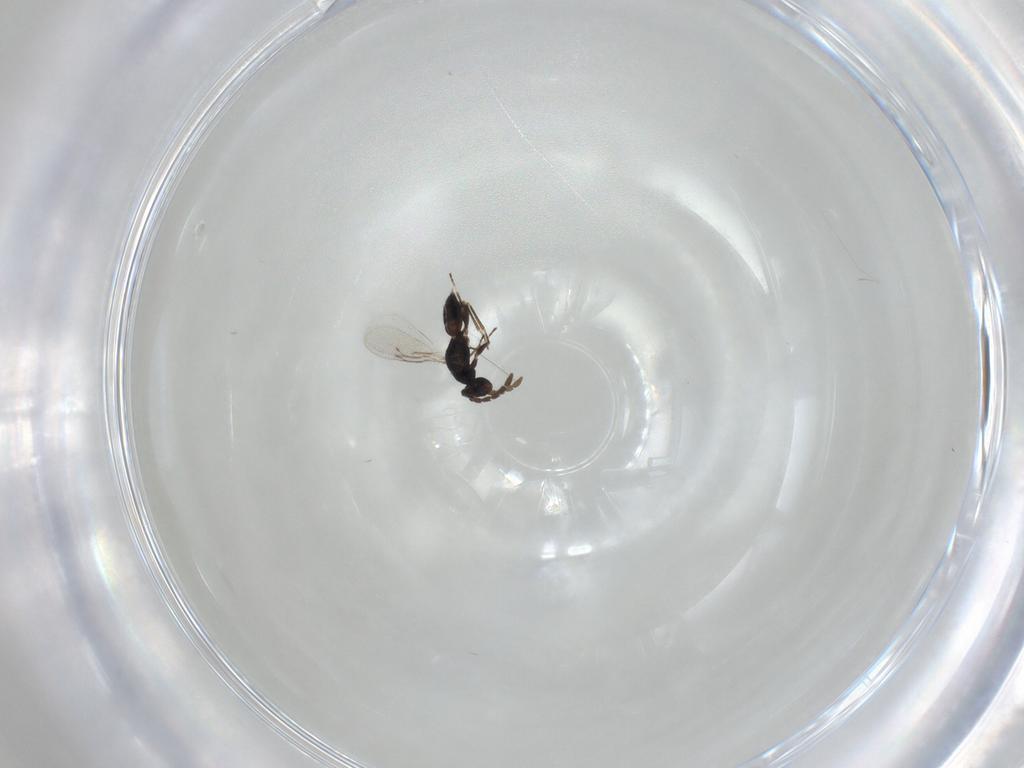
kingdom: Animalia
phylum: Arthropoda
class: Insecta
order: Hymenoptera
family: Eulophidae
